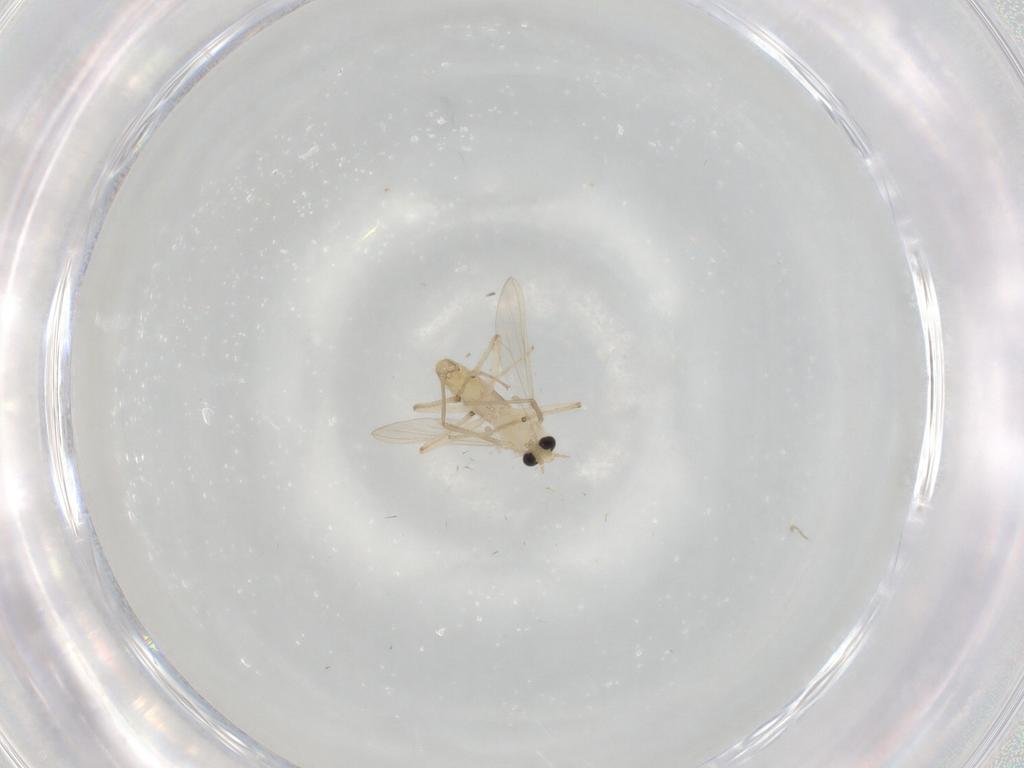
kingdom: Animalia
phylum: Arthropoda
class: Insecta
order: Diptera
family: Chironomidae
